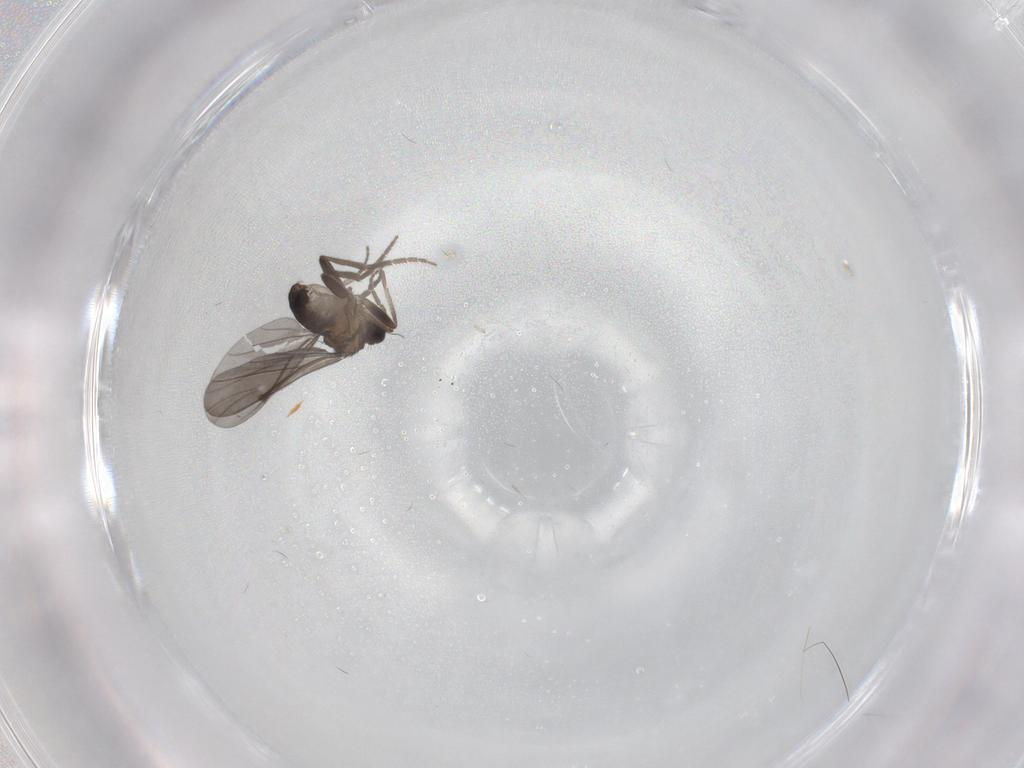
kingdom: Animalia
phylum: Arthropoda
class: Insecta
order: Diptera
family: Phoridae
